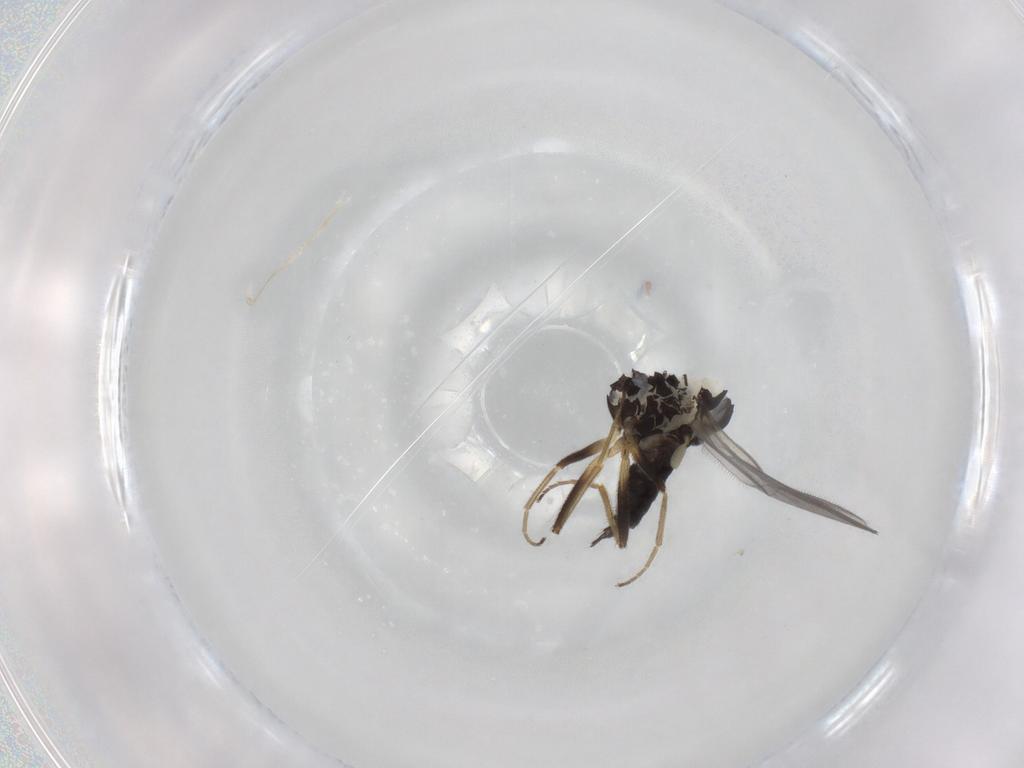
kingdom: Animalia
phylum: Arthropoda
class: Insecta
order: Diptera
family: Hybotidae
